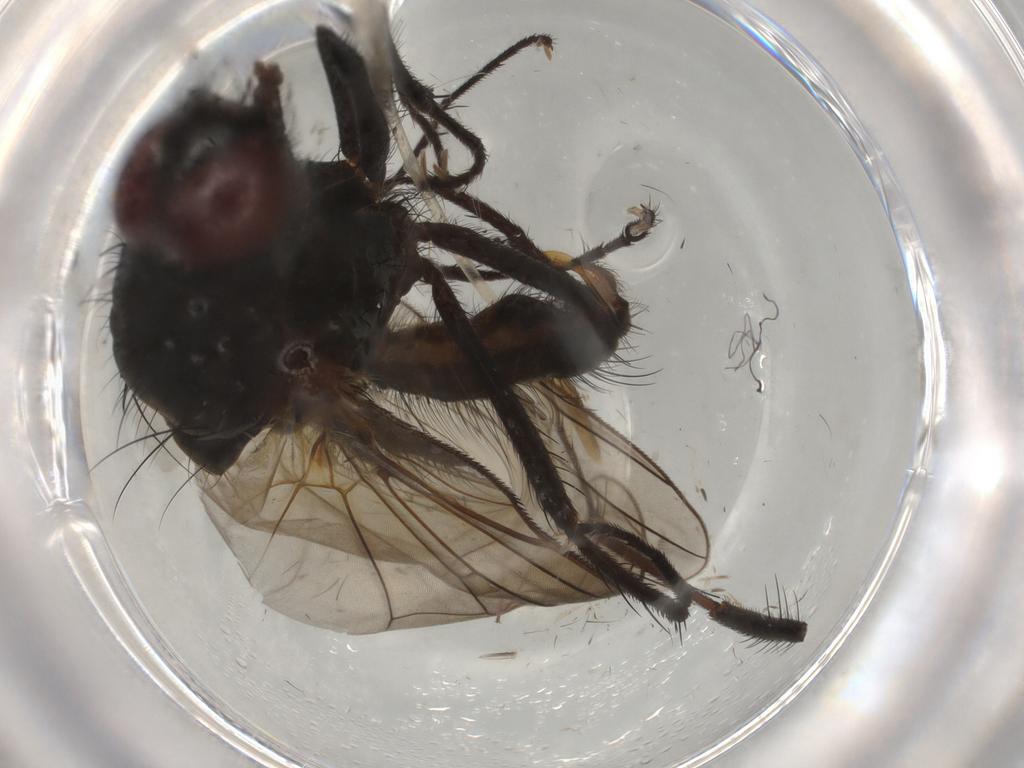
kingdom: Animalia
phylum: Arthropoda
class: Insecta
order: Diptera
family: Anthomyiidae
